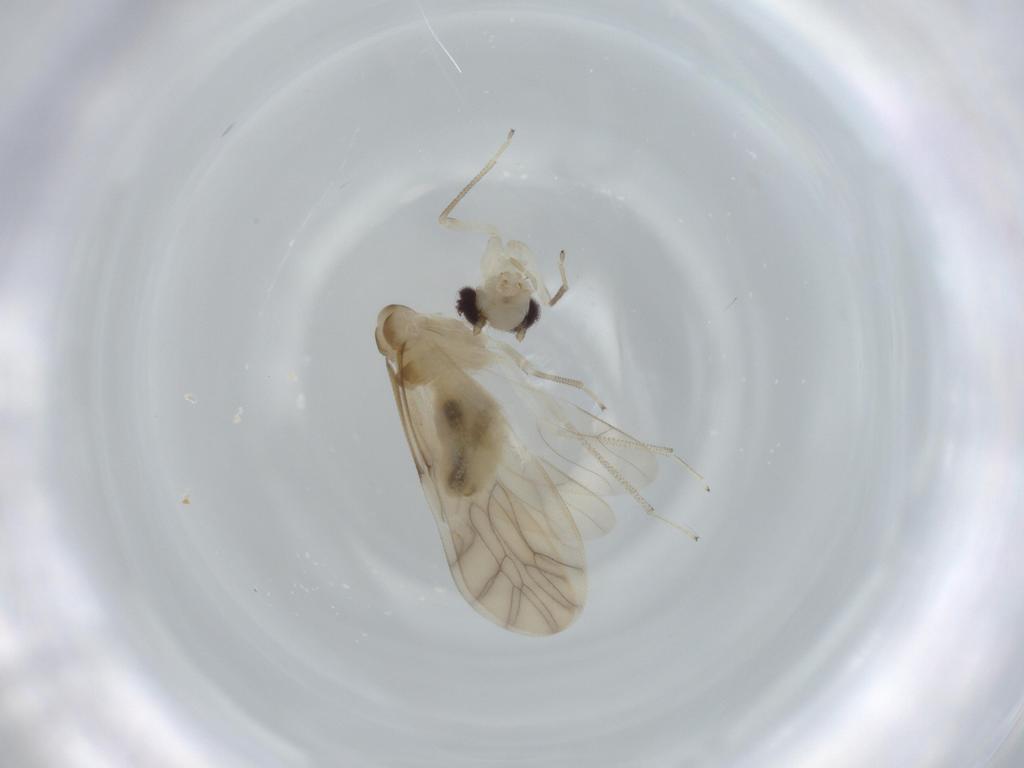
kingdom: Animalia
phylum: Arthropoda
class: Insecta
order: Psocodea
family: Caeciliusidae
